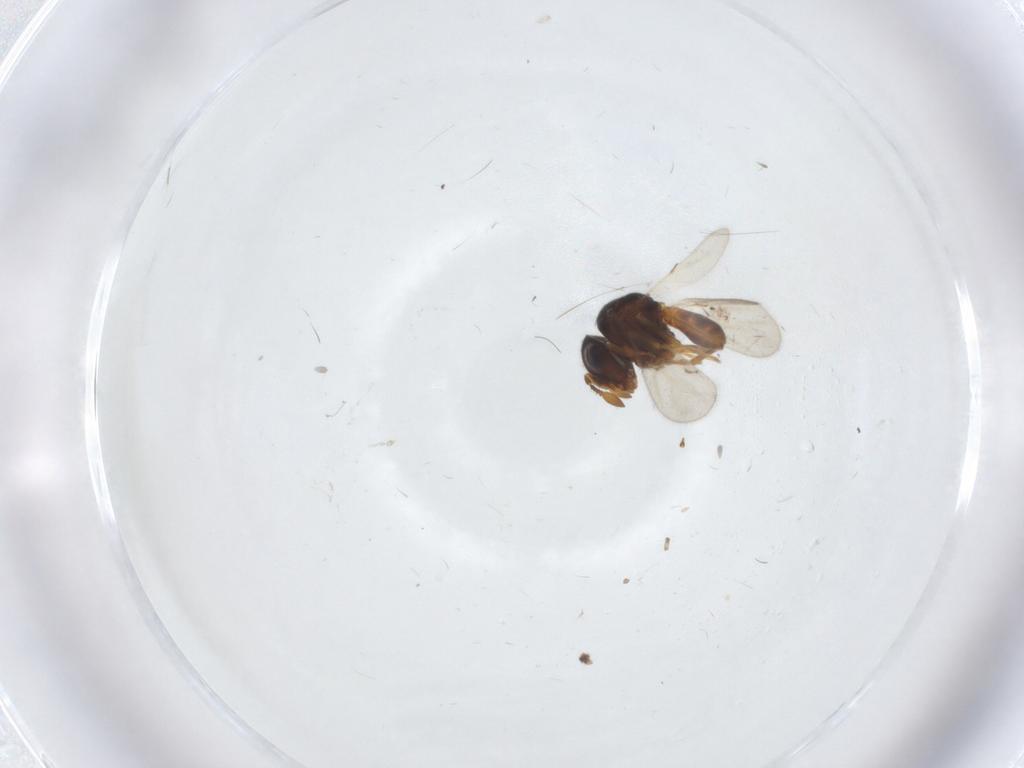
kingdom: Animalia
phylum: Arthropoda
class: Insecta
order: Hymenoptera
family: Scelionidae
